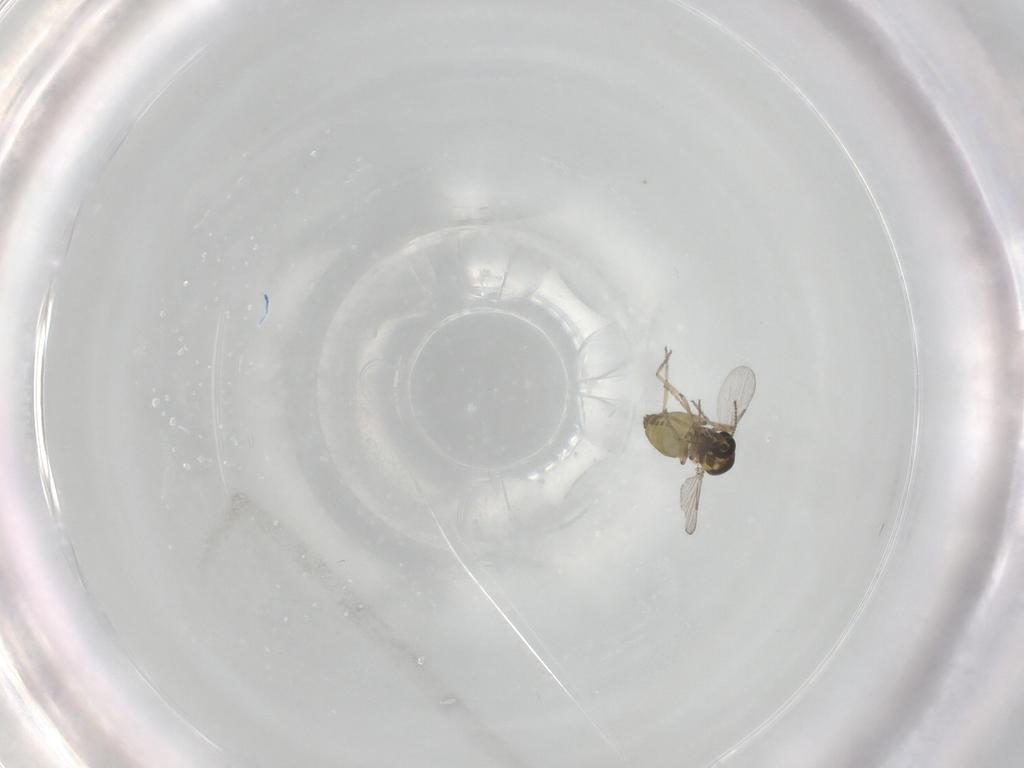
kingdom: Animalia
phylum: Arthropoda
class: Insecta
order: Diptera
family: Ceratopogonidae
